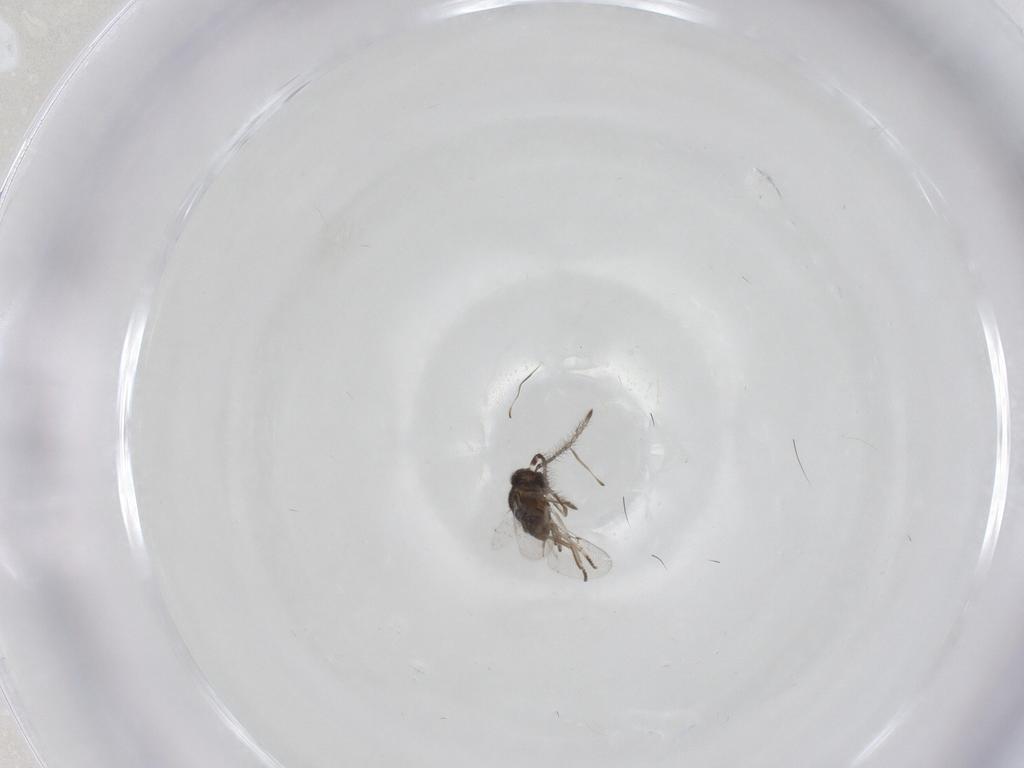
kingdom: Animalia
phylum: Arthropoda
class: Insecta
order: Hymenoptera
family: Encyrtidae
